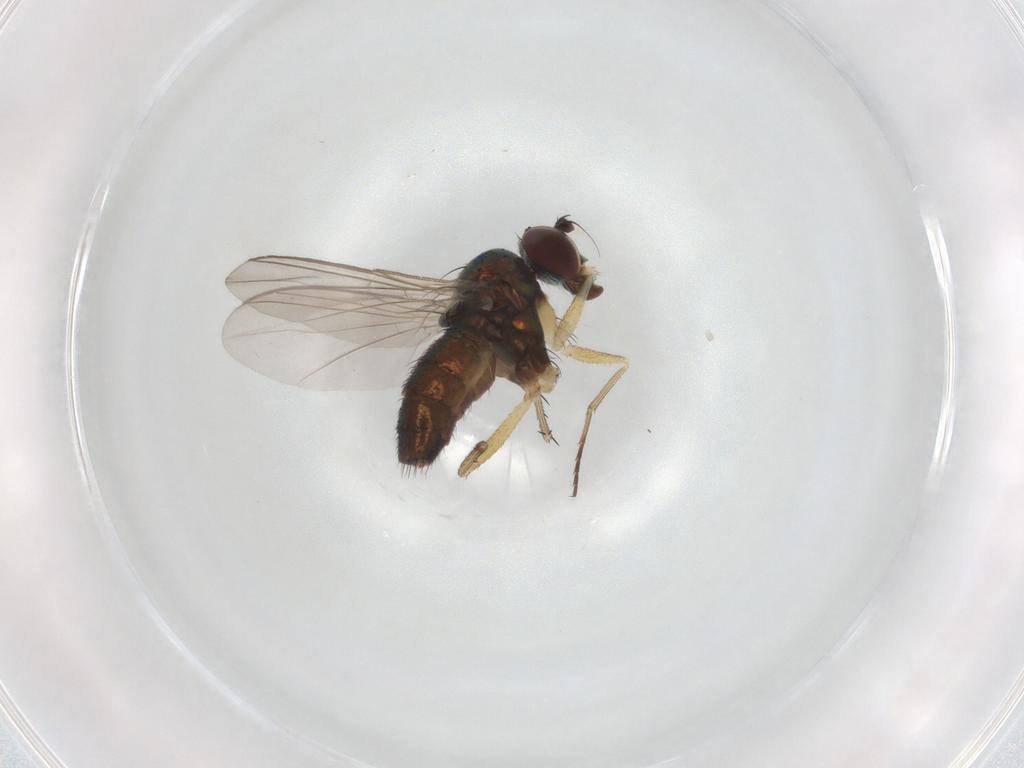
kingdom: Animalia
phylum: Arthropoda
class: Insecta
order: Diptera
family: Dolichopodidae
